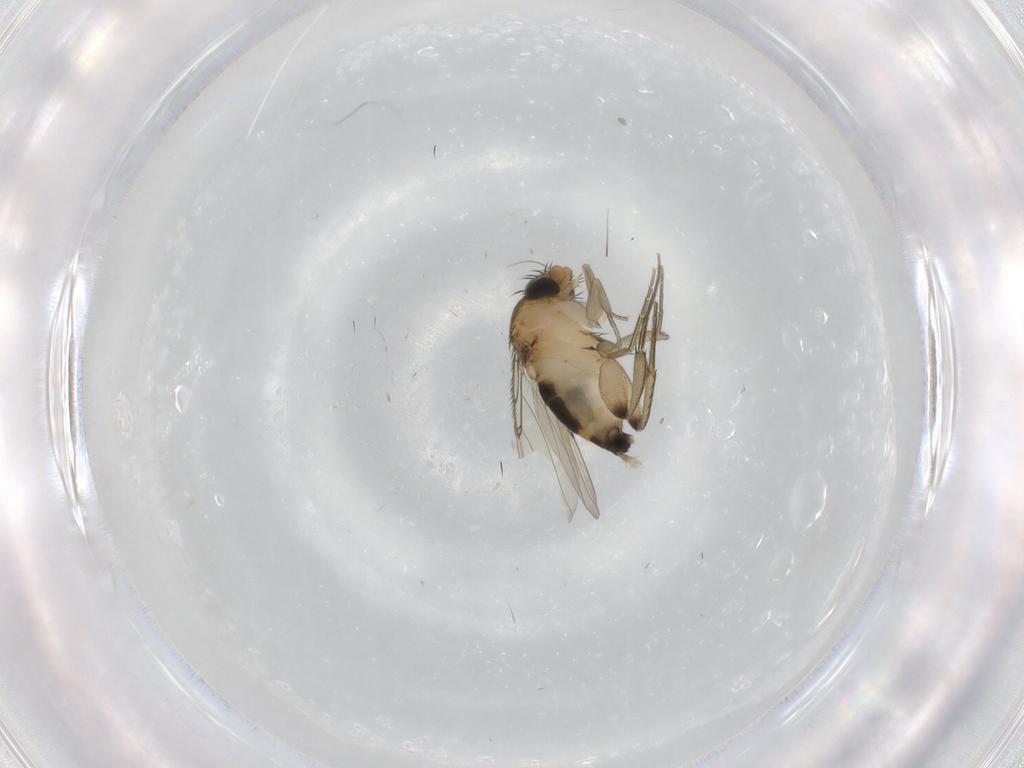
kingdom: Animalia
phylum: Arthropoda
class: Insecta
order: Diptera
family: Phoridae
